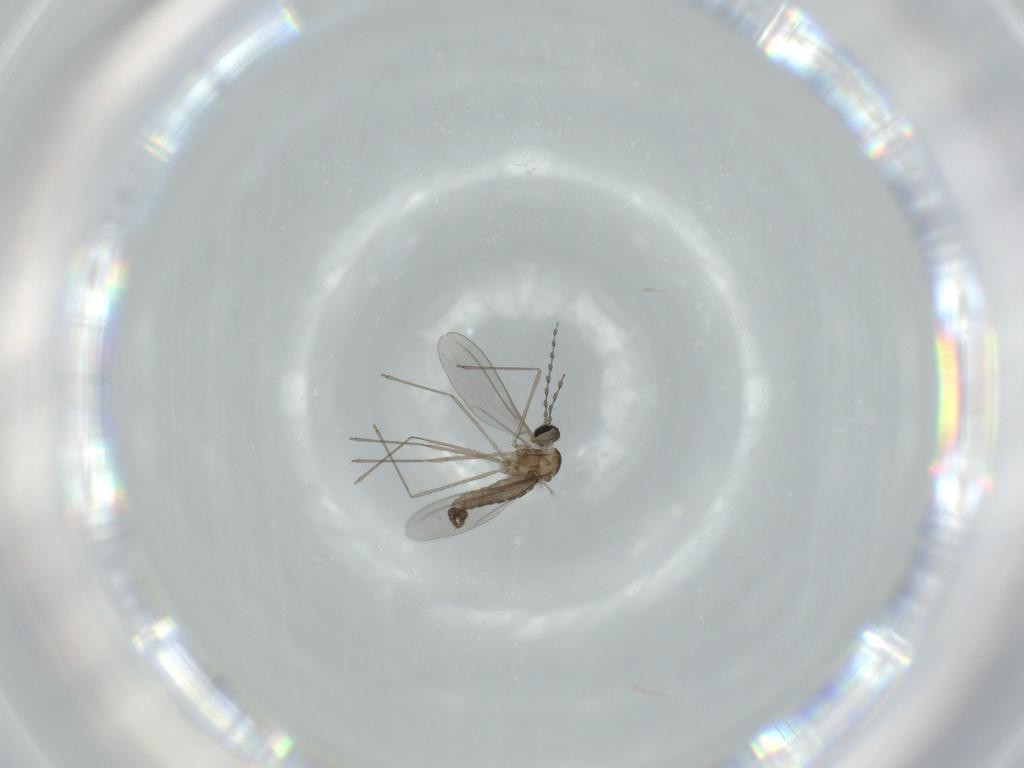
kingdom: Animalia
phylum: Arthropoda
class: Insecta
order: Diptera
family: Cecidomyiidae
